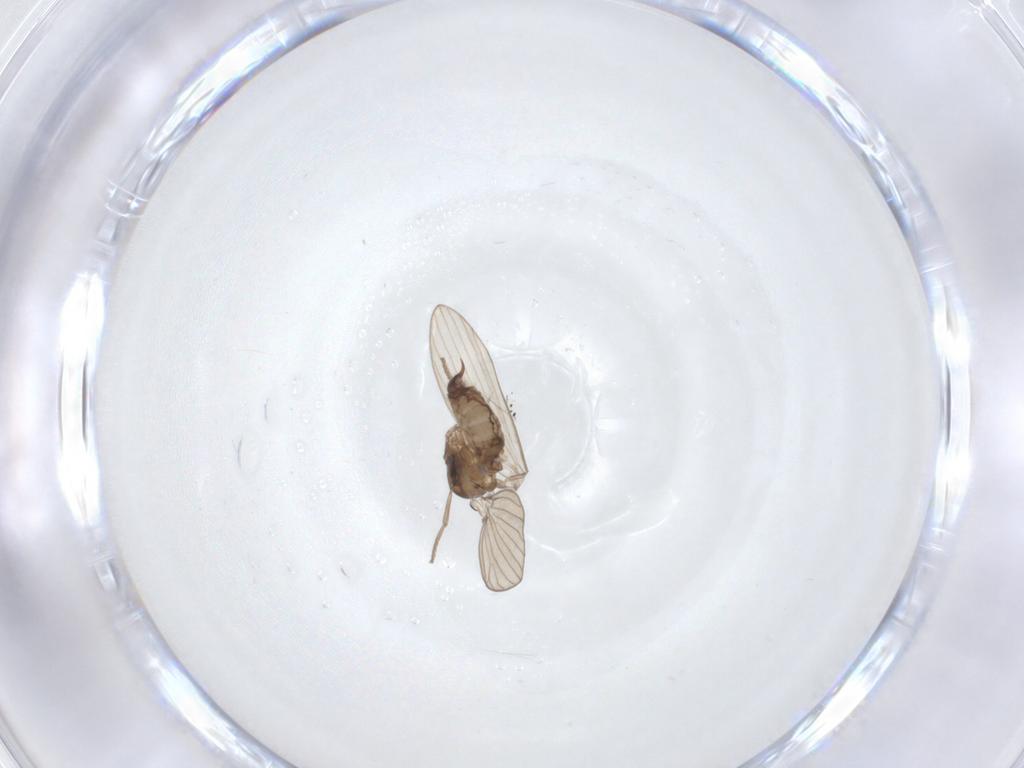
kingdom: Animalia
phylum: Arthropoda
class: Insecta
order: Diptera
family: Psychodidae
